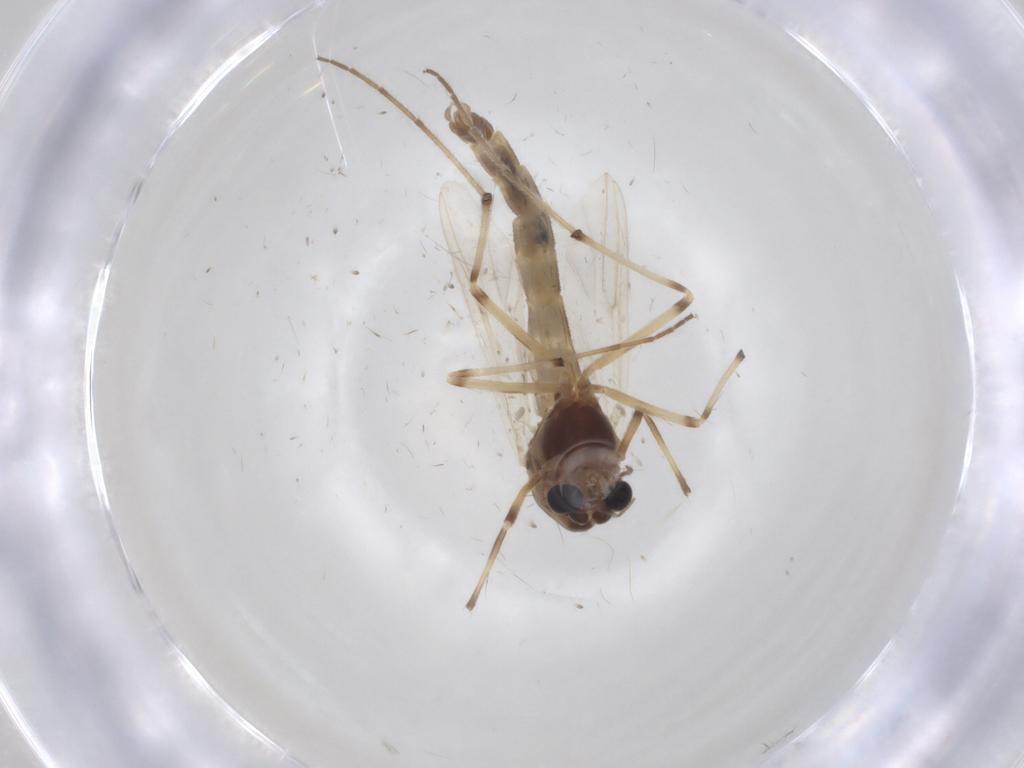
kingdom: Animalia
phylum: Arthropoda
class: Insecta
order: Diptera
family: Chironomidae
